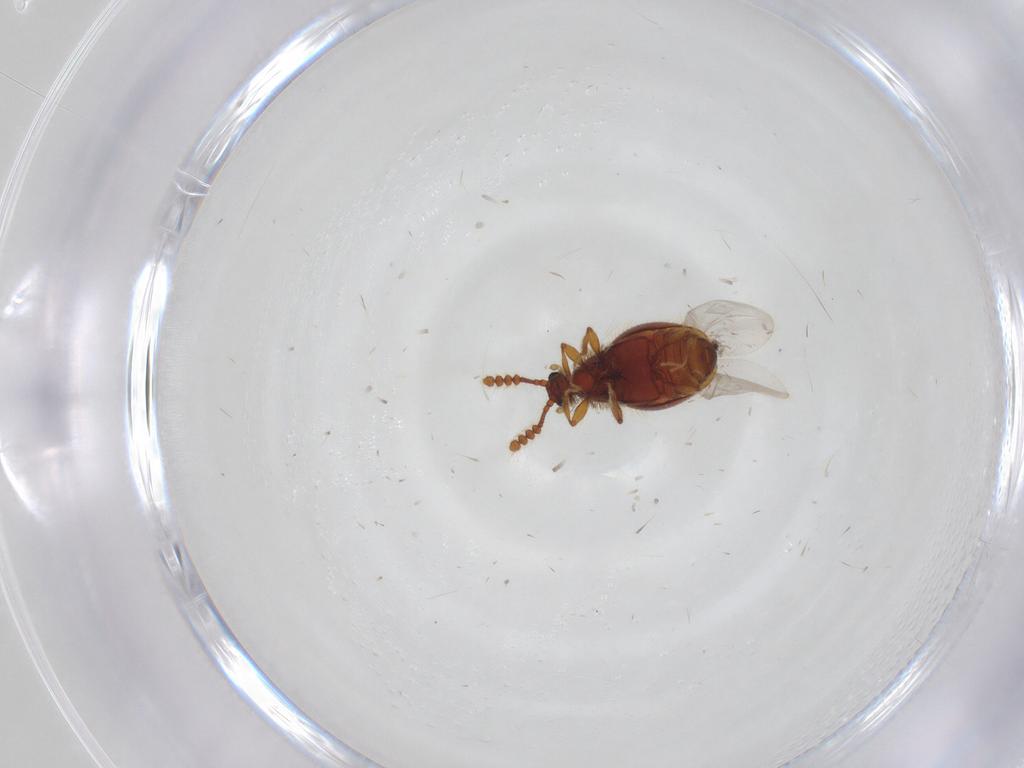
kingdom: Animalia
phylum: Arthropoda
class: Insecta
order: Coleoptera
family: Staphylinidae
